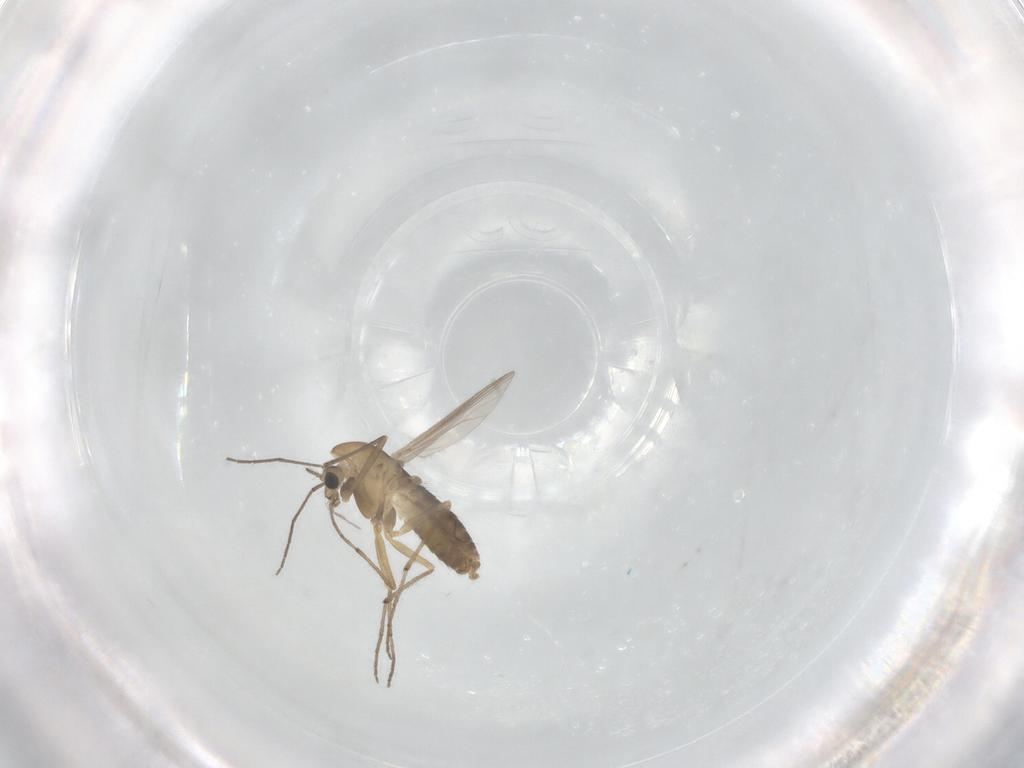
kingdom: Animalia
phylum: Arthropoda
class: Insecta
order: Diptera
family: Chironomidae
